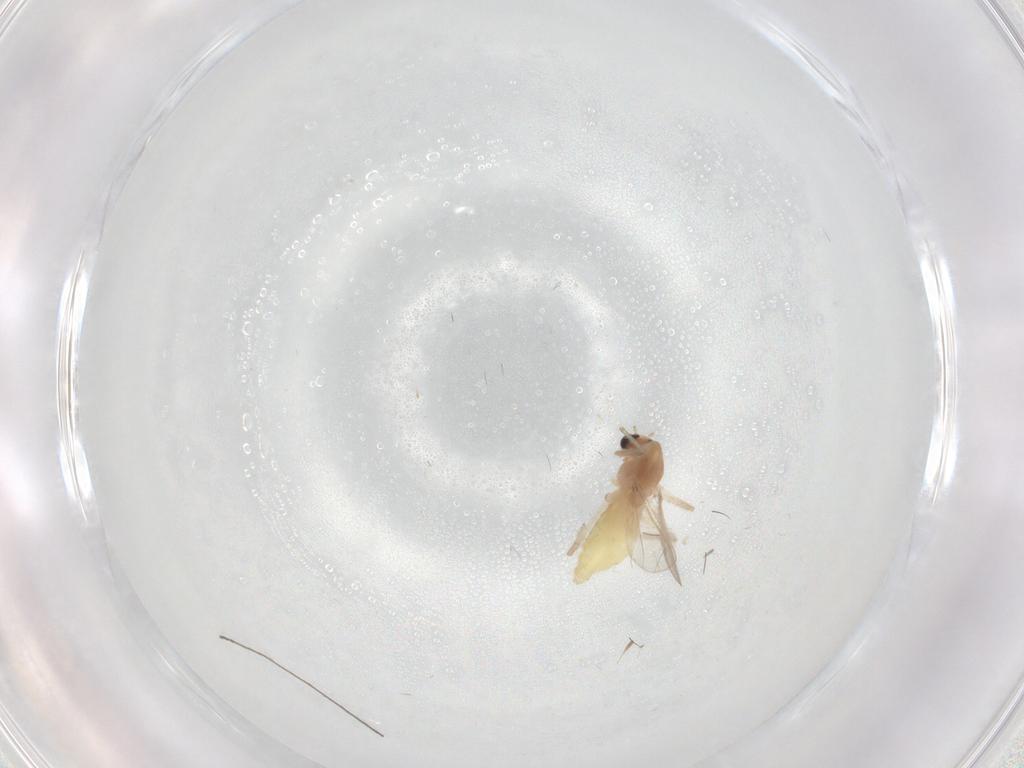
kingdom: Animalia
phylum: Arthropoda
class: Insecta
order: Diptera
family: Chironomidae
